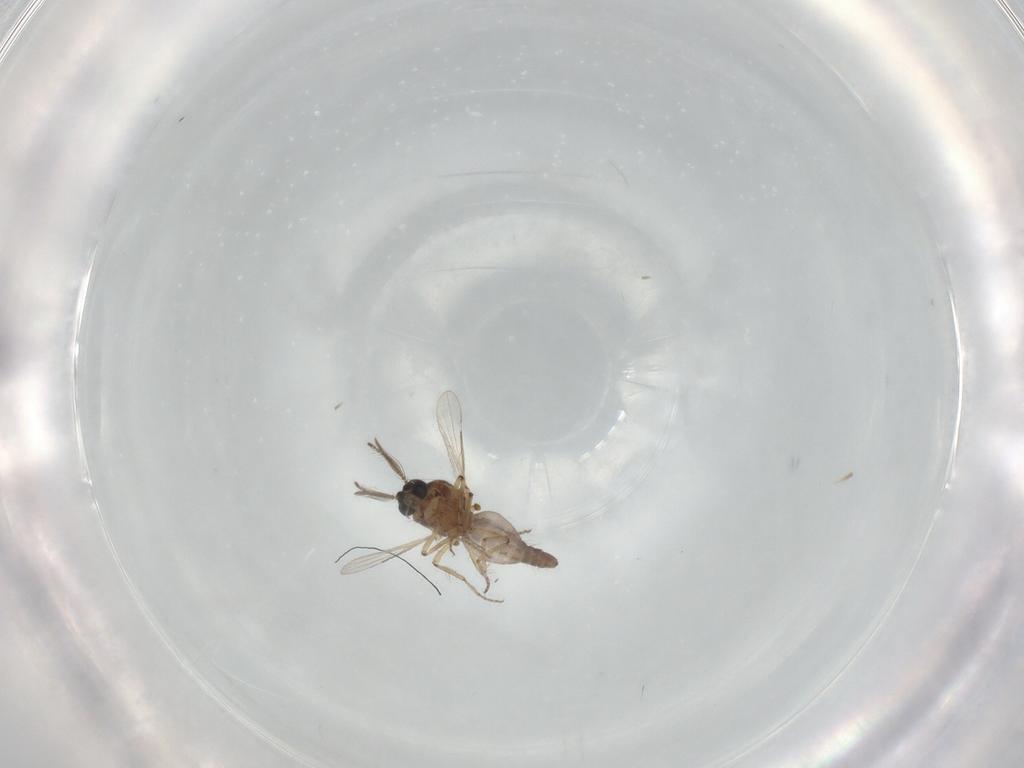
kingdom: Animalia
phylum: Arthropoda
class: Insecta
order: Diptera
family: Ceratopogonidae
